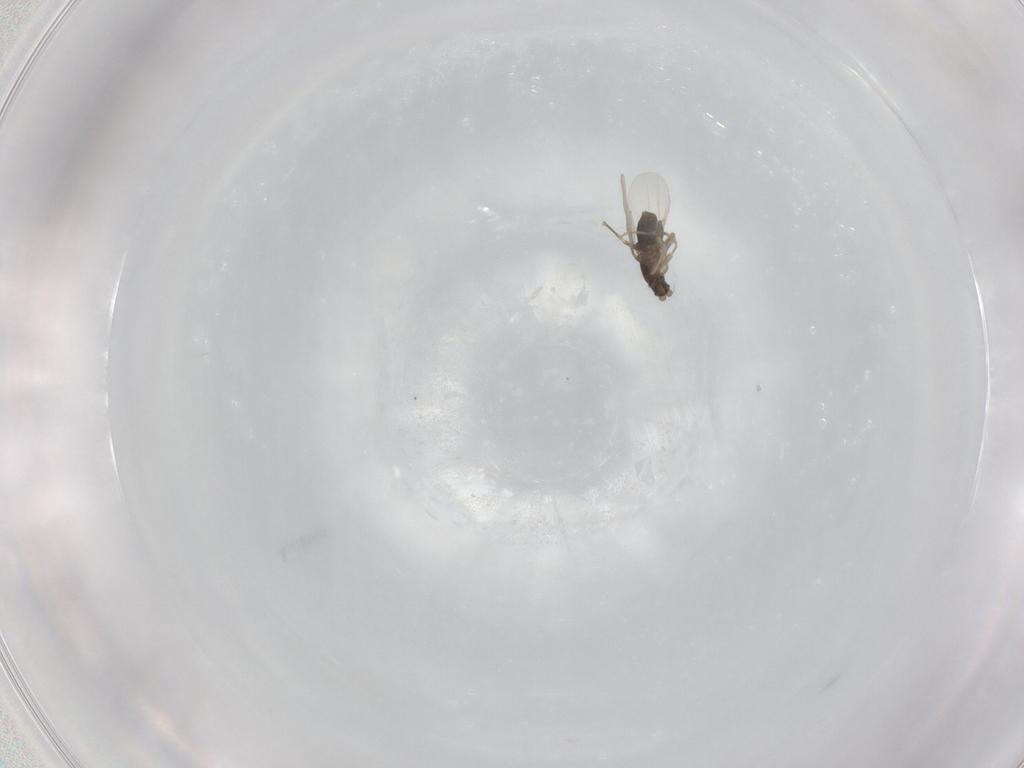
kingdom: Animalia
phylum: Arthropoda
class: Insecta
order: Diptera
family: Phoridae
